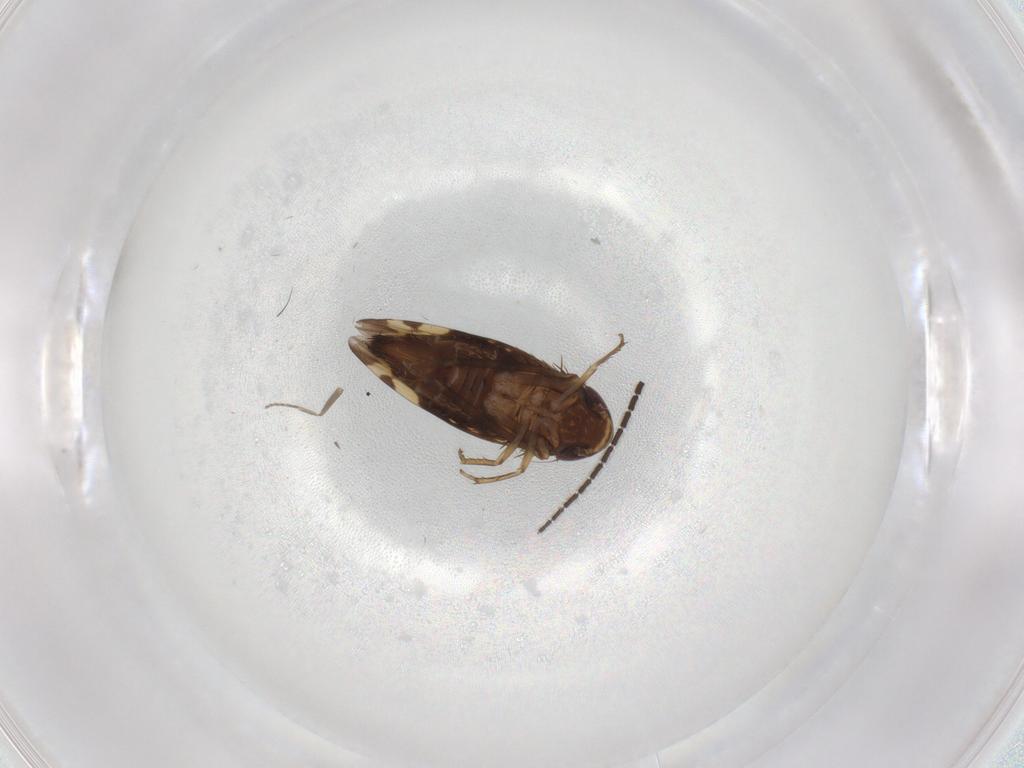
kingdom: Animalia
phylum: Arthropoda
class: Insecta
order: Hemiptera
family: Cicadellidae
